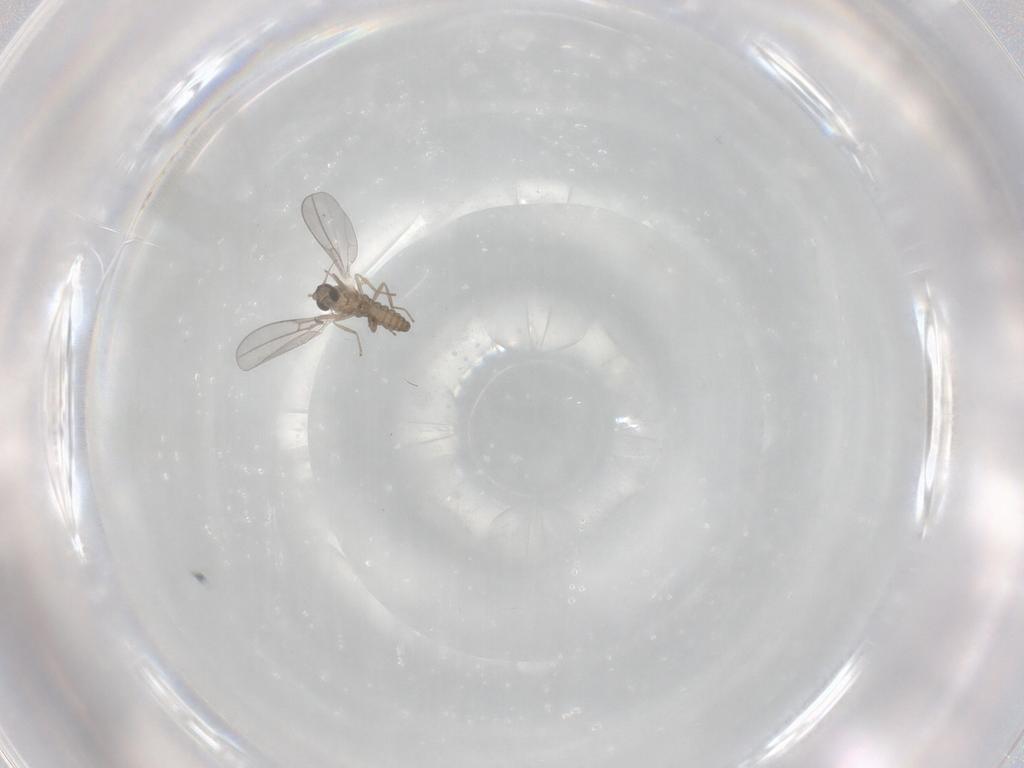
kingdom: Animalia
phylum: Arthropoda
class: Insecta
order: Diptera
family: Cecidomyiidae
